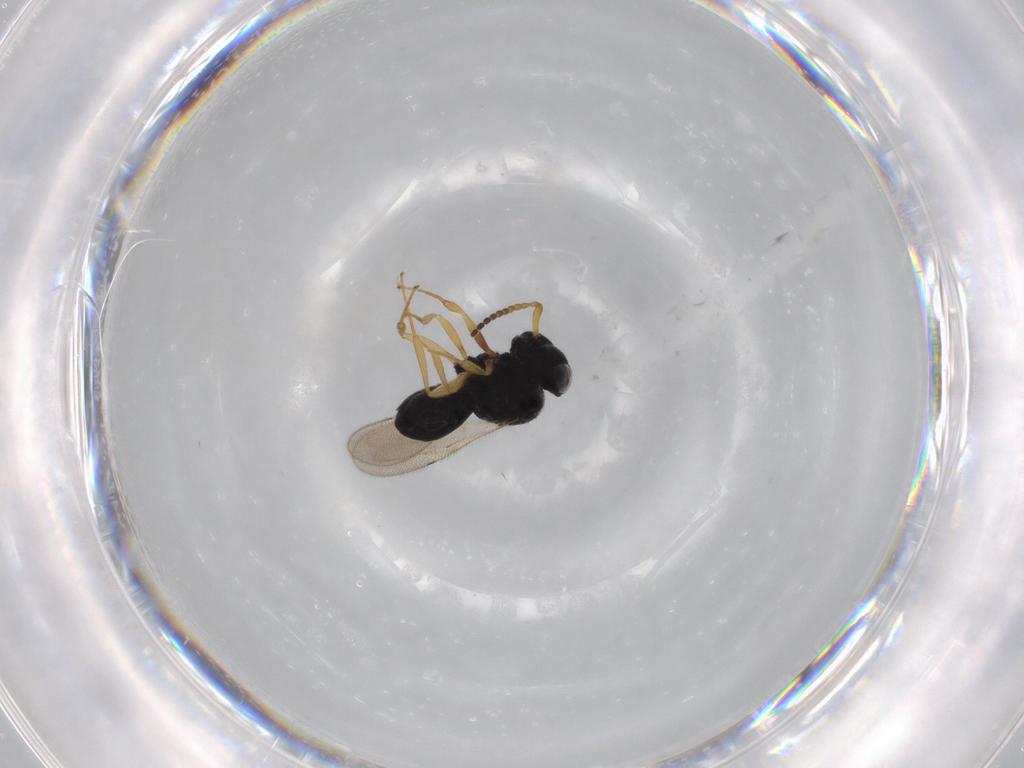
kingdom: Animalia
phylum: Arthropoda
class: Insecta
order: Hymenoptera
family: Scelionidae
